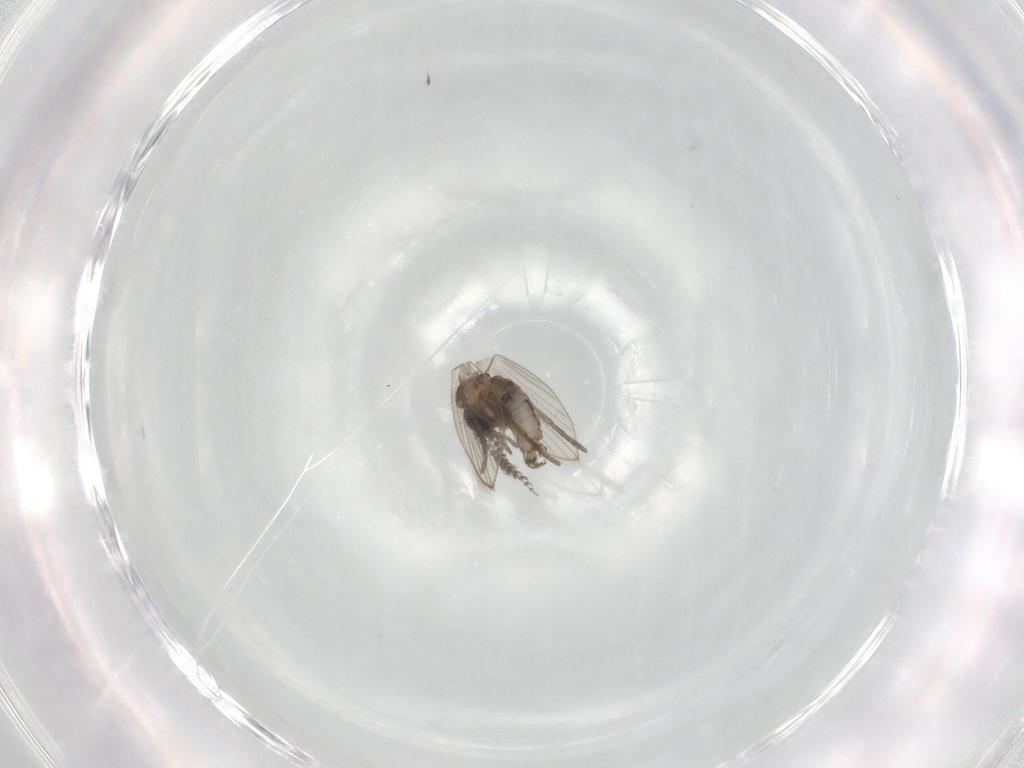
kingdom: Animalia
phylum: Arthropoda
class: Insecta
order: Diptera
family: Psychodidae
